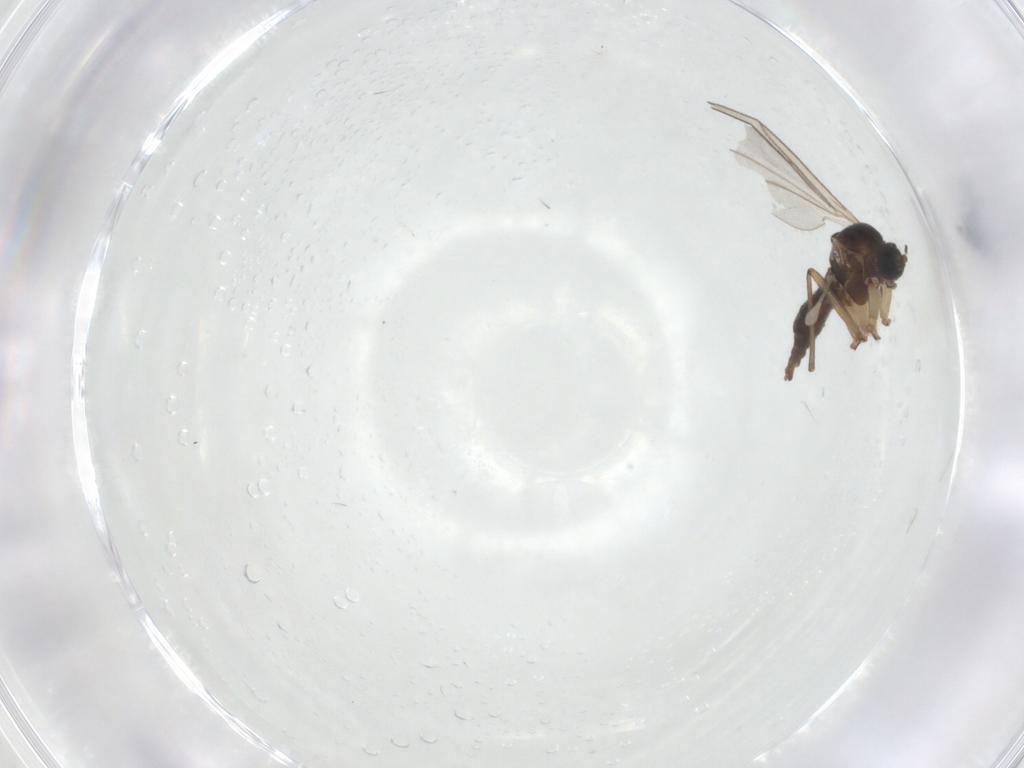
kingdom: Animalia
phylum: Arthropoda
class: Insecta
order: Diptera
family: Sciaridae
